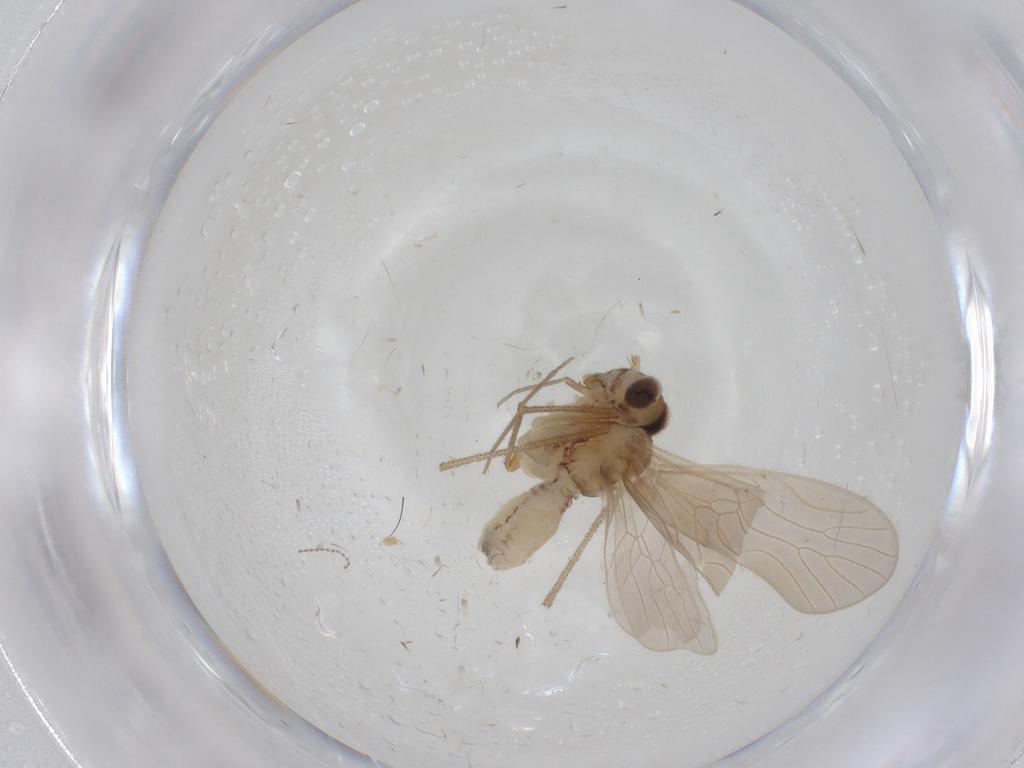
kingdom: Animalia
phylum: Arthropoda
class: Insecta
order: Psocodea
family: Mesopsocidae
